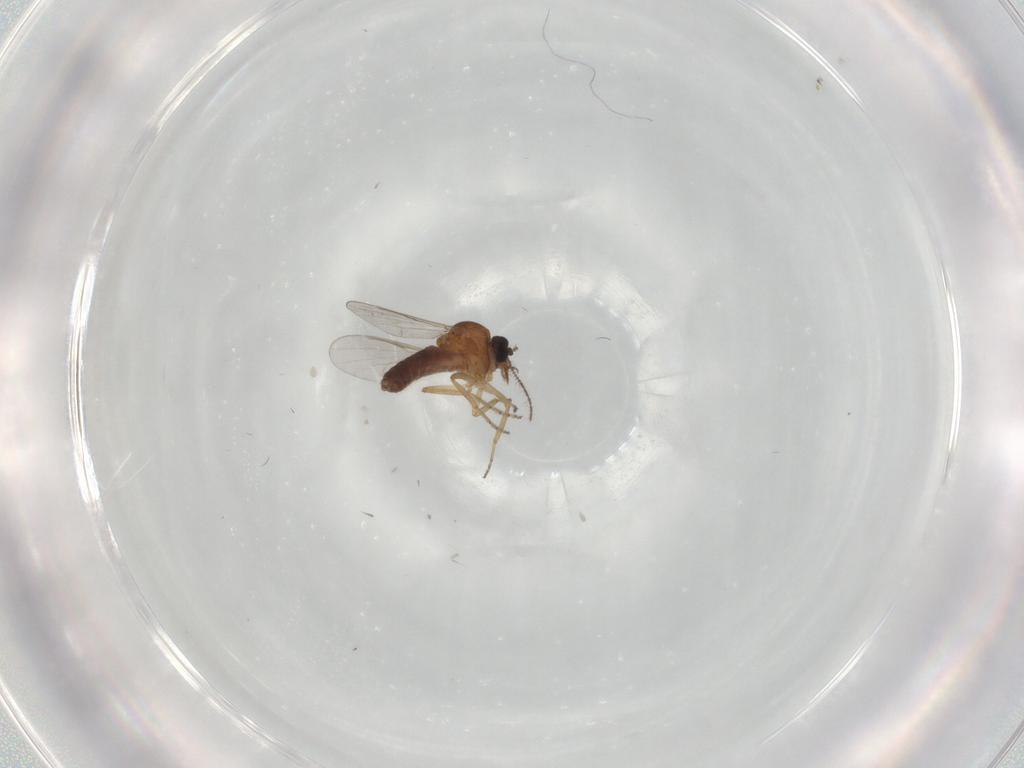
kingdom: Animalia
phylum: Arthropoda
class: Insecta
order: Diptera
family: Ceratopogonidae
